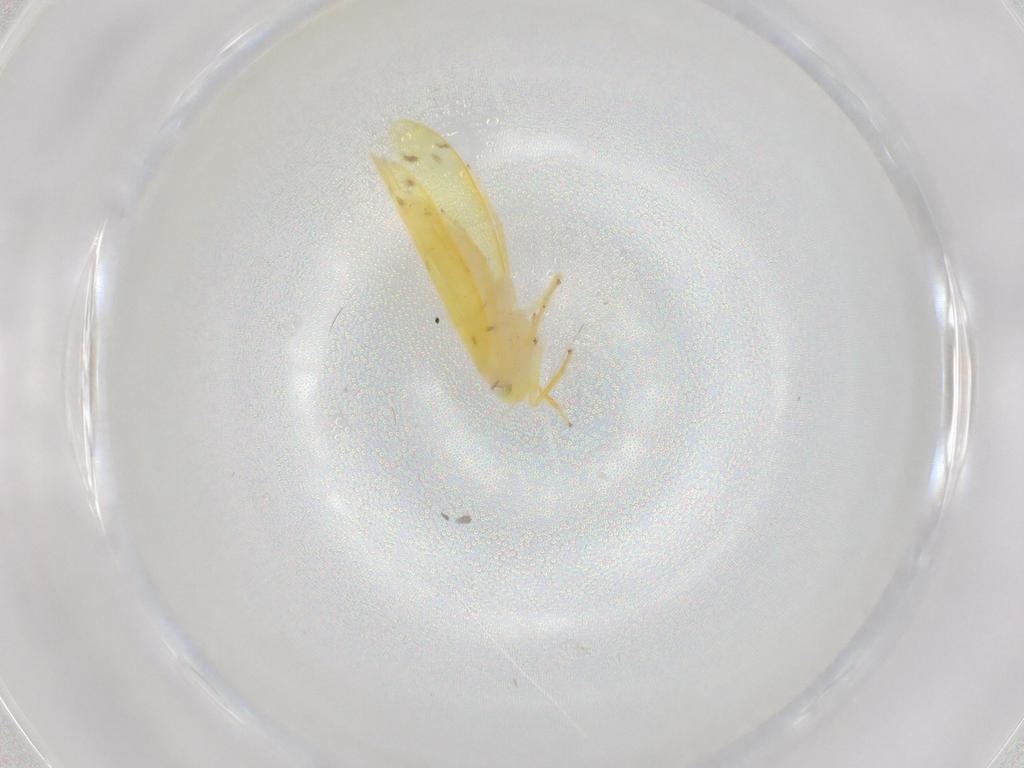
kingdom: Animalia
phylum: Arthropoda
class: Insecta
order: Hemiptera
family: Cicadellidae
